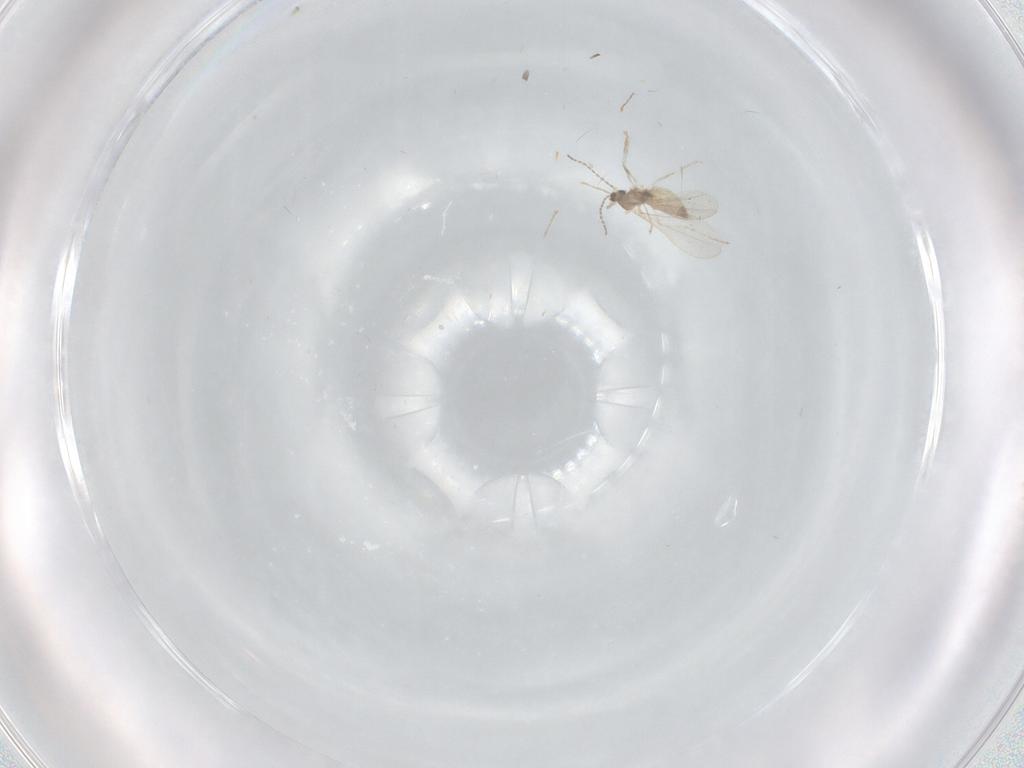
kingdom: Animalia
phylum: Arthropoda
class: Insecta
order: Diptera
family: Cecidomyiidae
